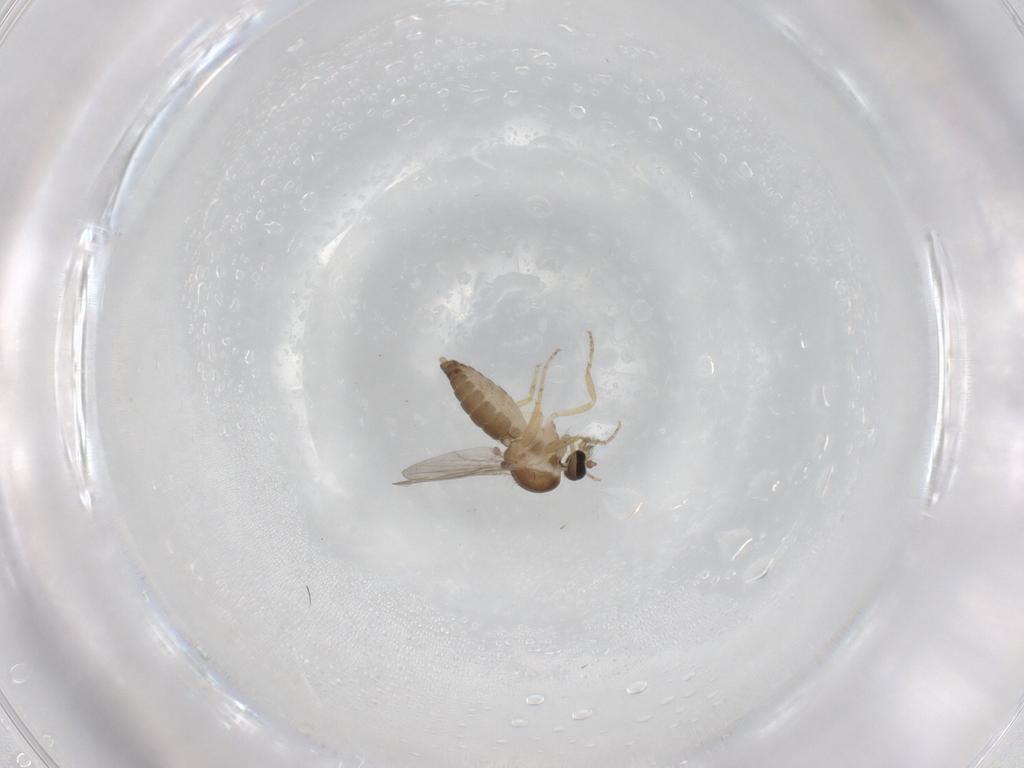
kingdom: Animalia
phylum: Arthropoda
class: Insecta
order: Diptera
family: Ceratopogonidae
